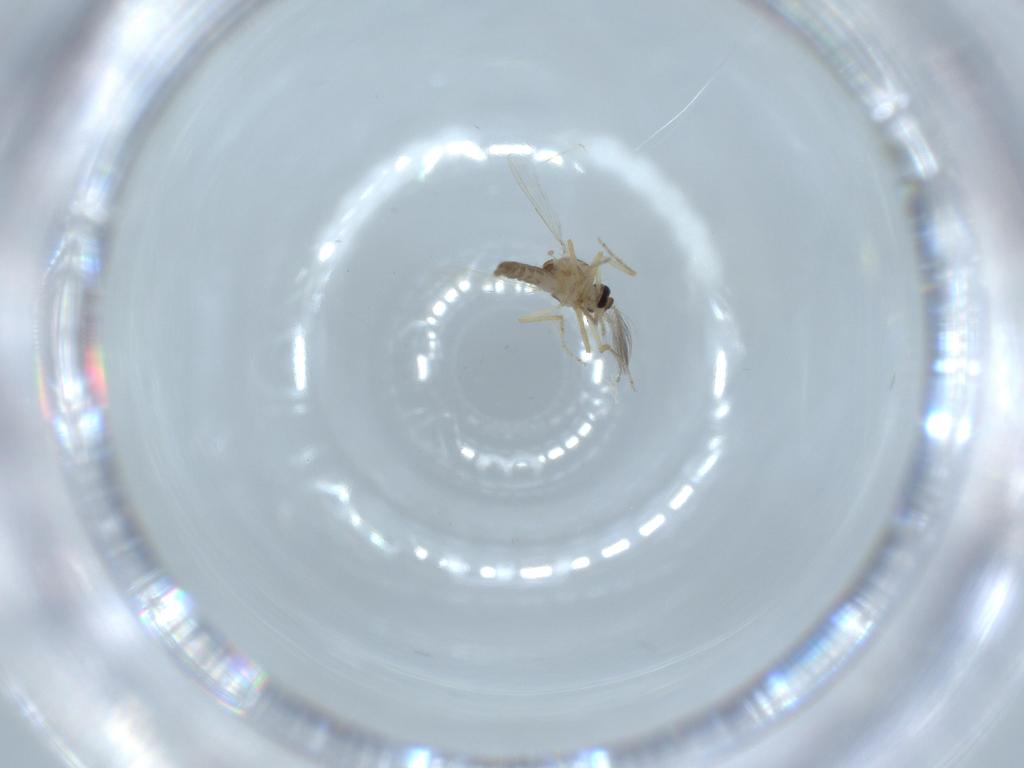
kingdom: Animalia
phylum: Arthropoda
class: Insecta
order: Diptera
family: Ceratopogonidae
